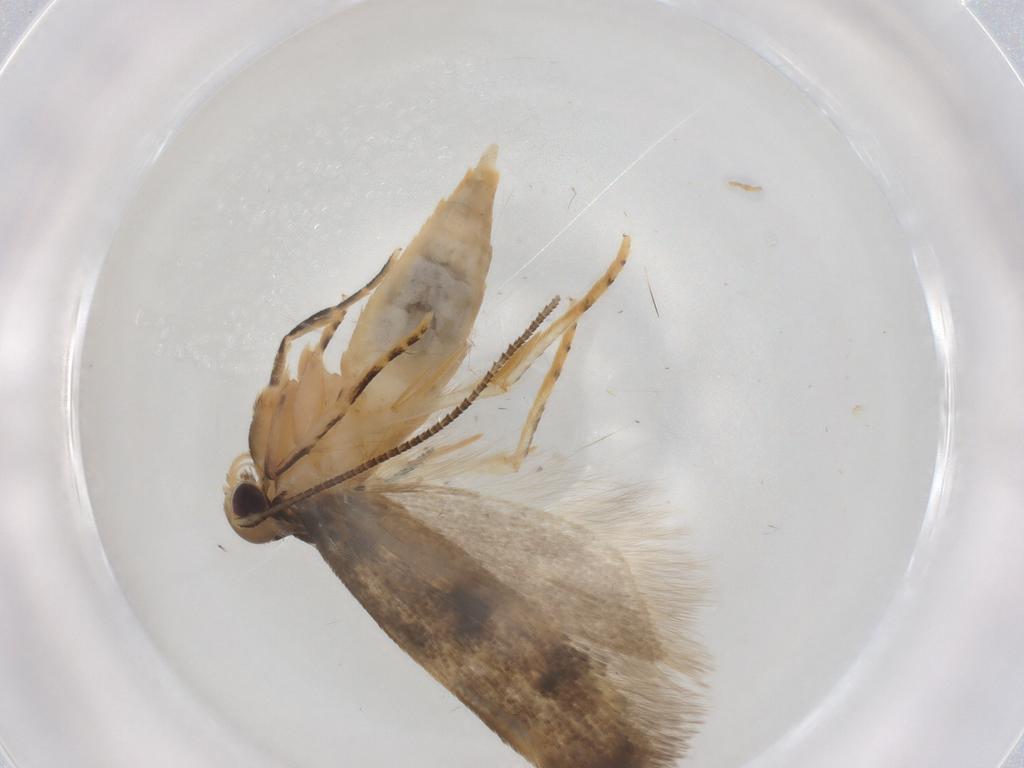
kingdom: Animalia
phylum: Arthropoda
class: Insecta
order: Lepidoptera
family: Autostichidae
